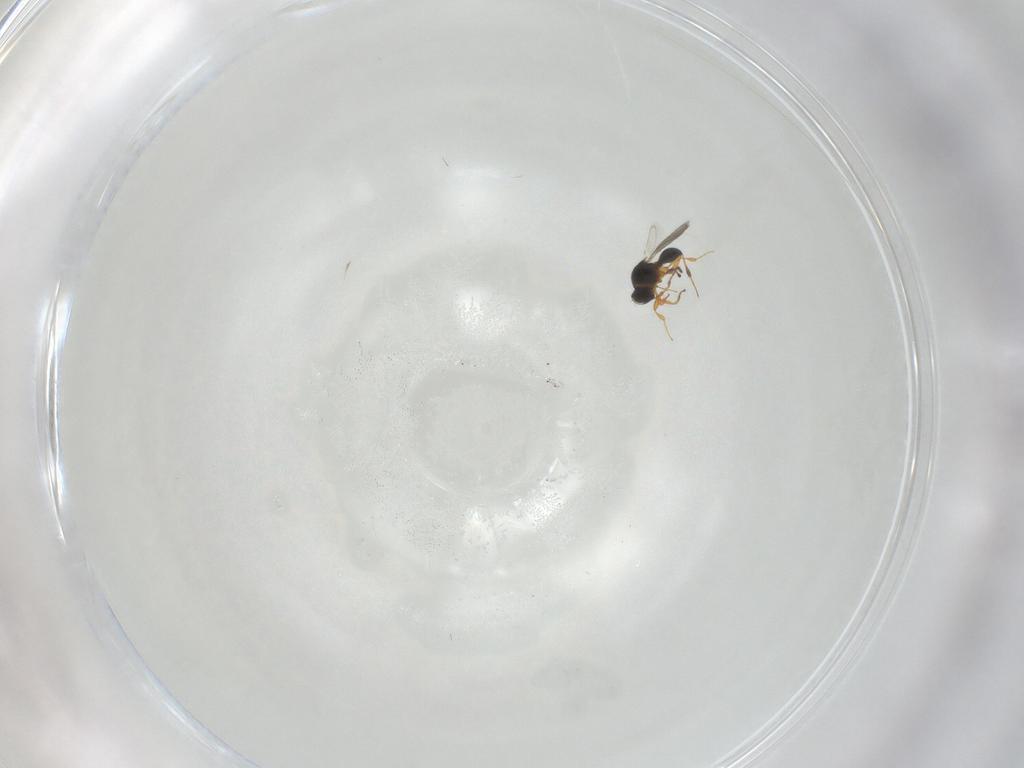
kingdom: Animalia
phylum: Arthropoda
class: Insecta
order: Hymenoptera
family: Platygastridae
